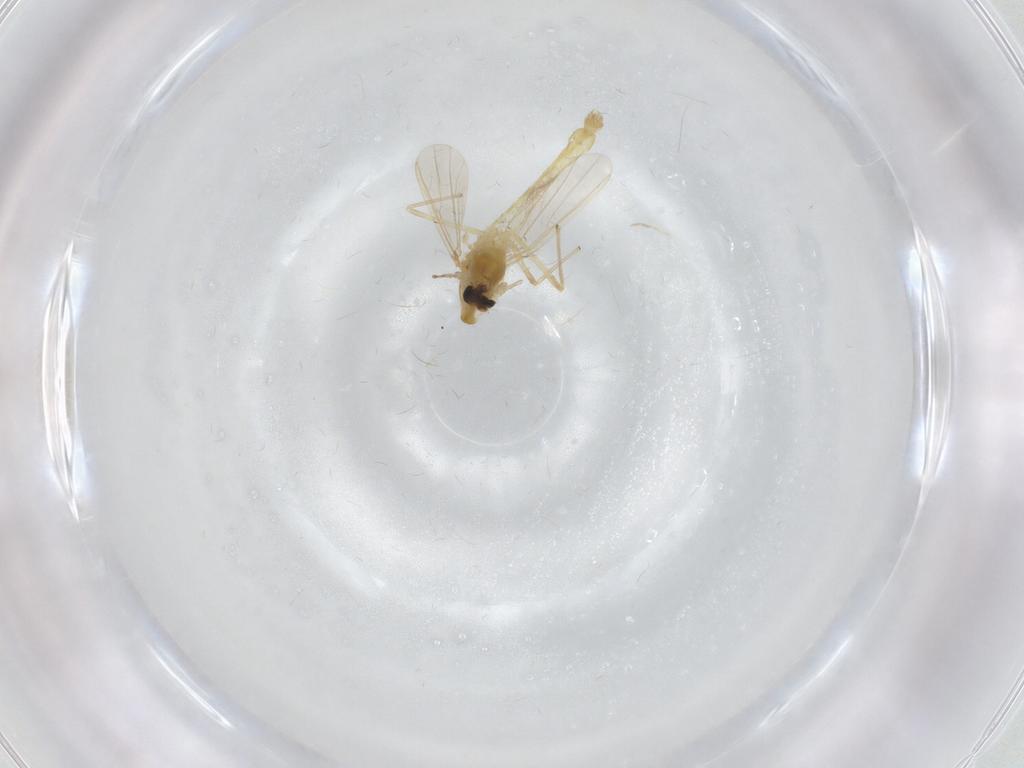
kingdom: Animalia
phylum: Arthropoda
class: Insecta
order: Diptera
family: Chironomidae
